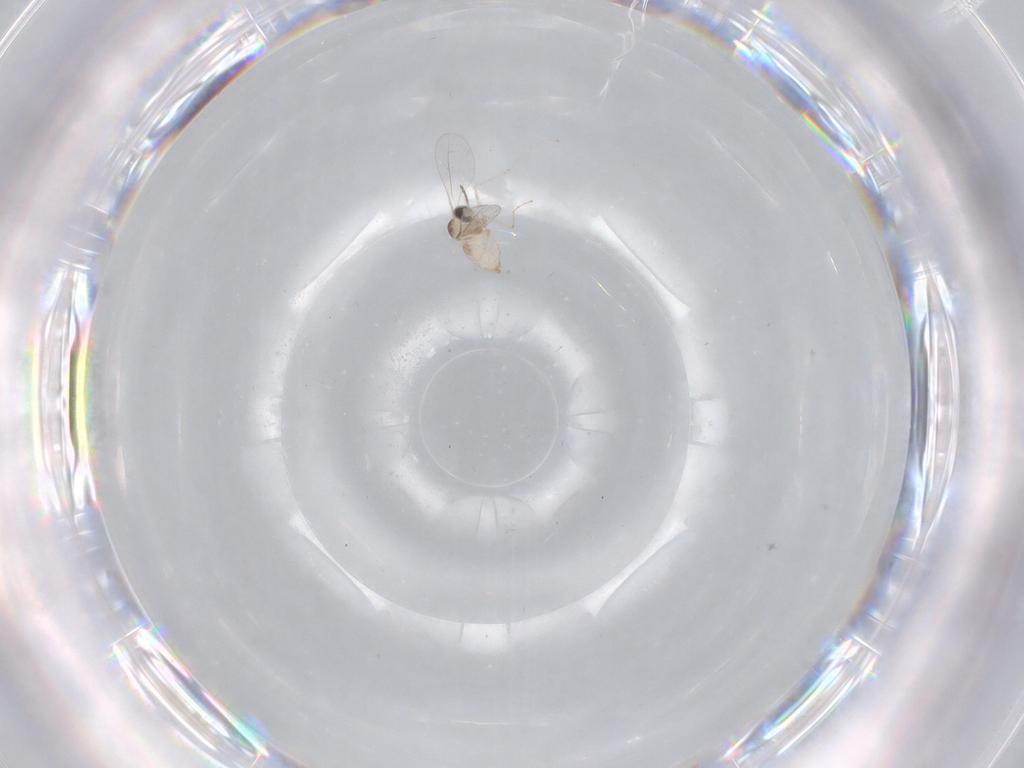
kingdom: Animalia
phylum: Arthropoda
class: Insecta
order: Diptera
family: Cecidomyiidae
